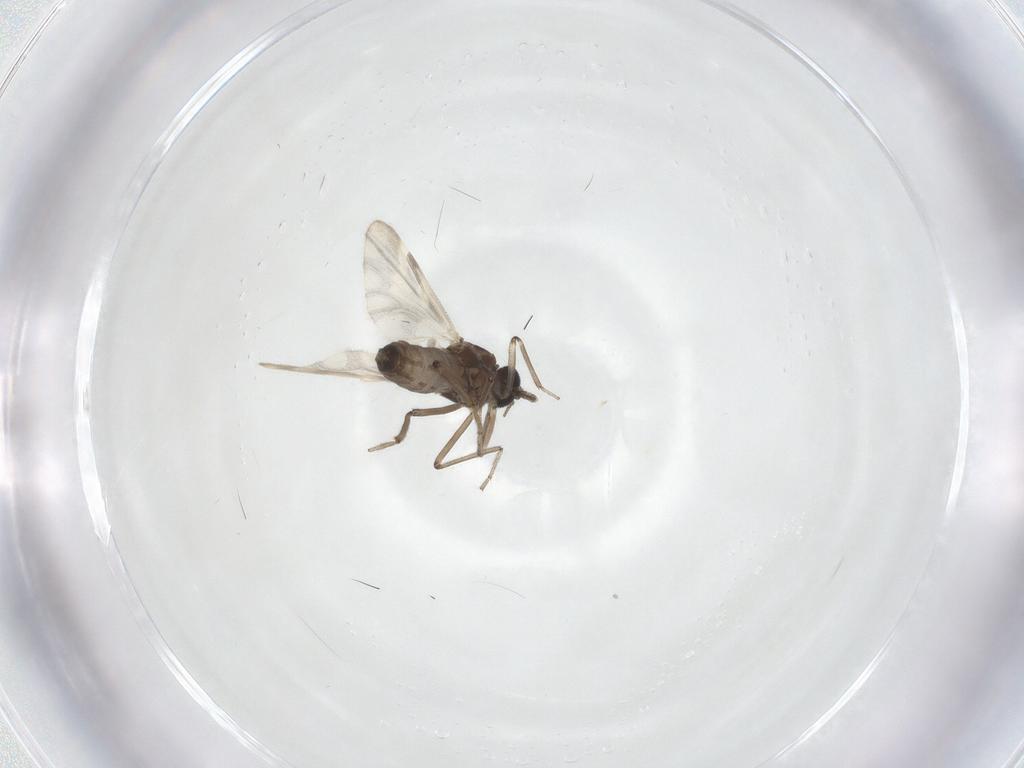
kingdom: Animalia
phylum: Arthropoda
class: Insecta
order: Diptera
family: Ceratopogonidae
